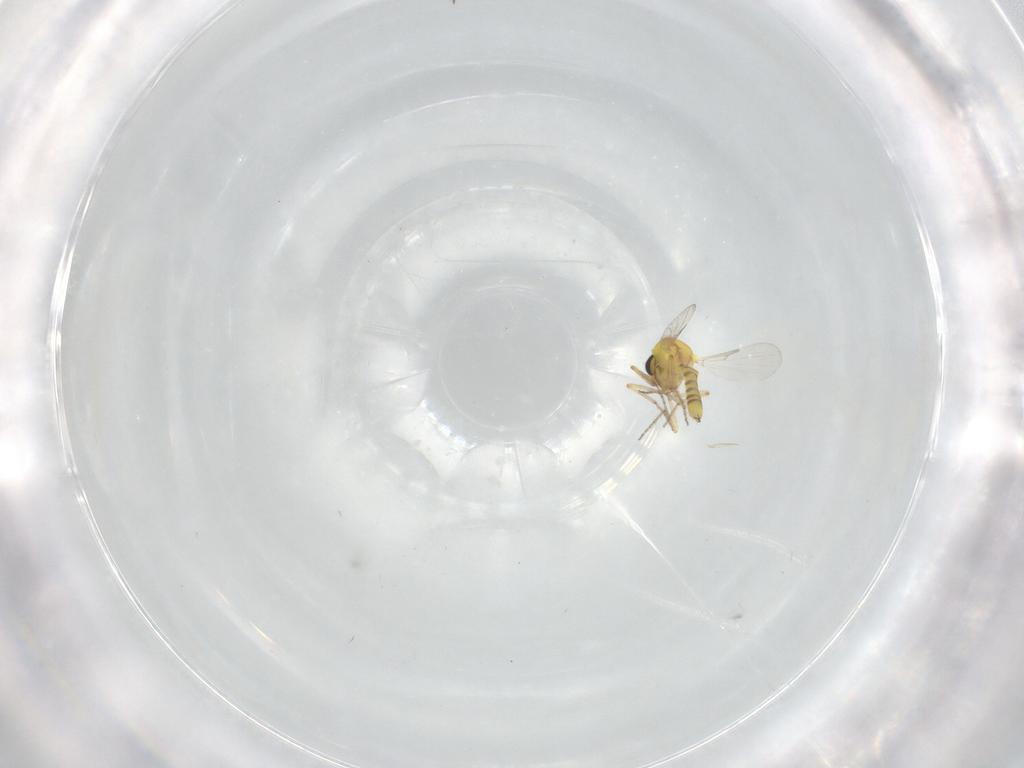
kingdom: Animalia
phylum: Arthropoda
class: Insecta
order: Diptera
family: Ceratopogonidae
